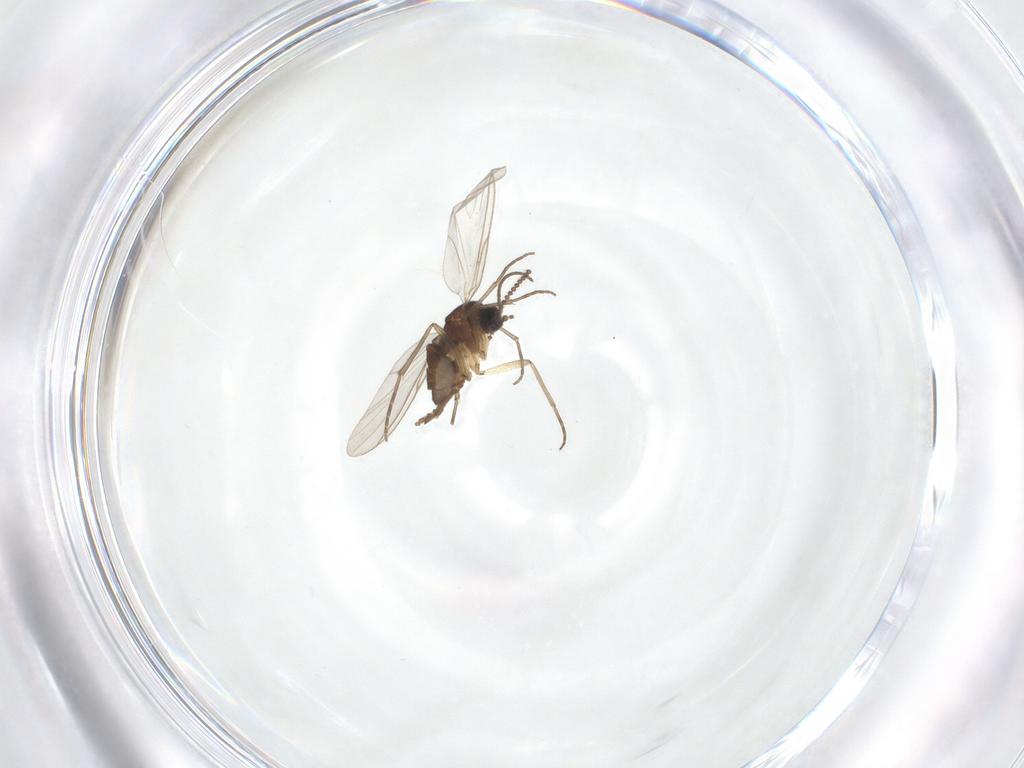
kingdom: Animalia
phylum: Arthropoda
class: Insecta
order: Diptera
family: Sciaridae
